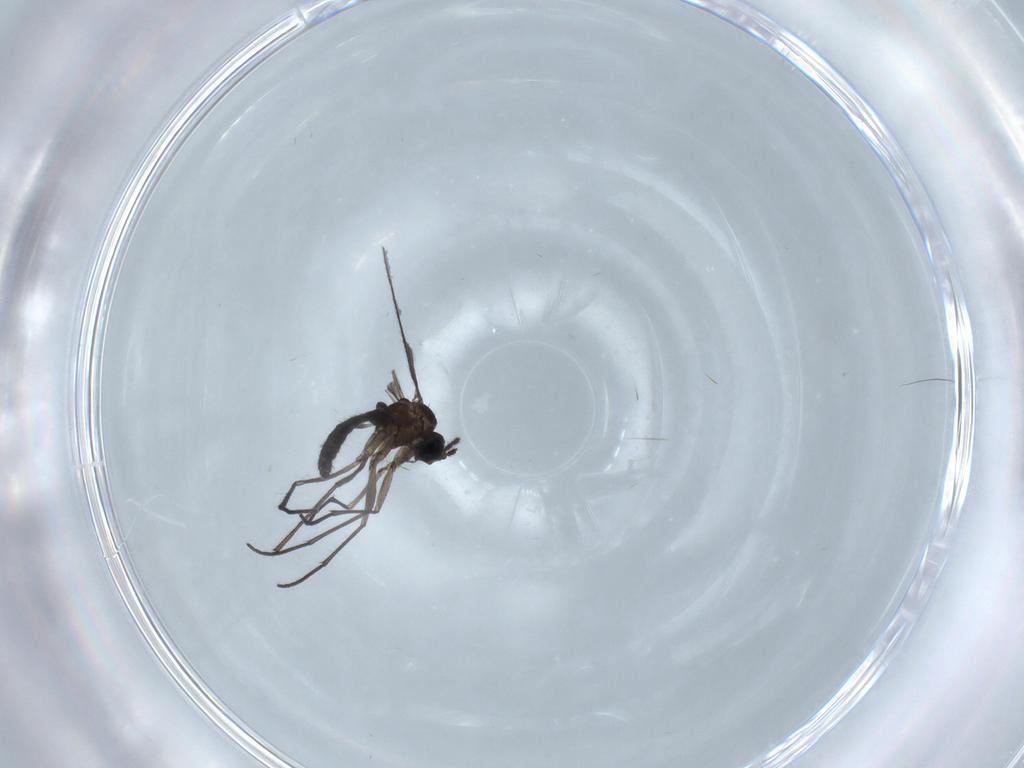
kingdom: Animalia
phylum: Arthropoda
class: Insecta
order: Diptera
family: Sciaridae
